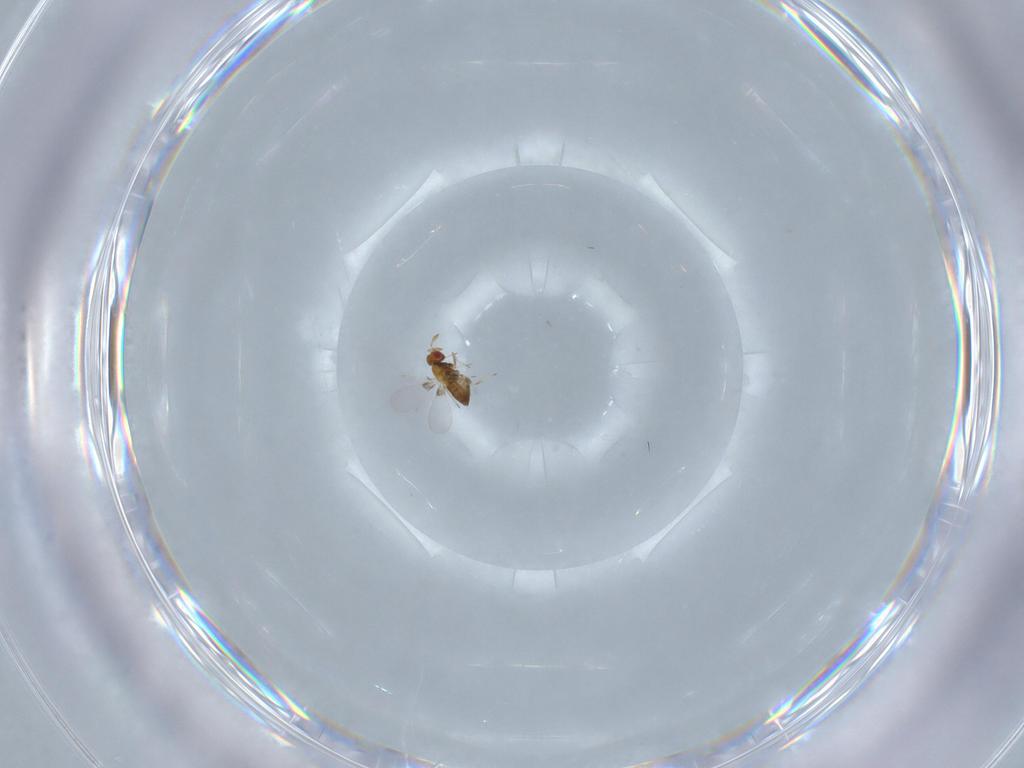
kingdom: Animalia
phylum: Arthropoda
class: Insecta
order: Hymenoptera
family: Trichogrammatidae
